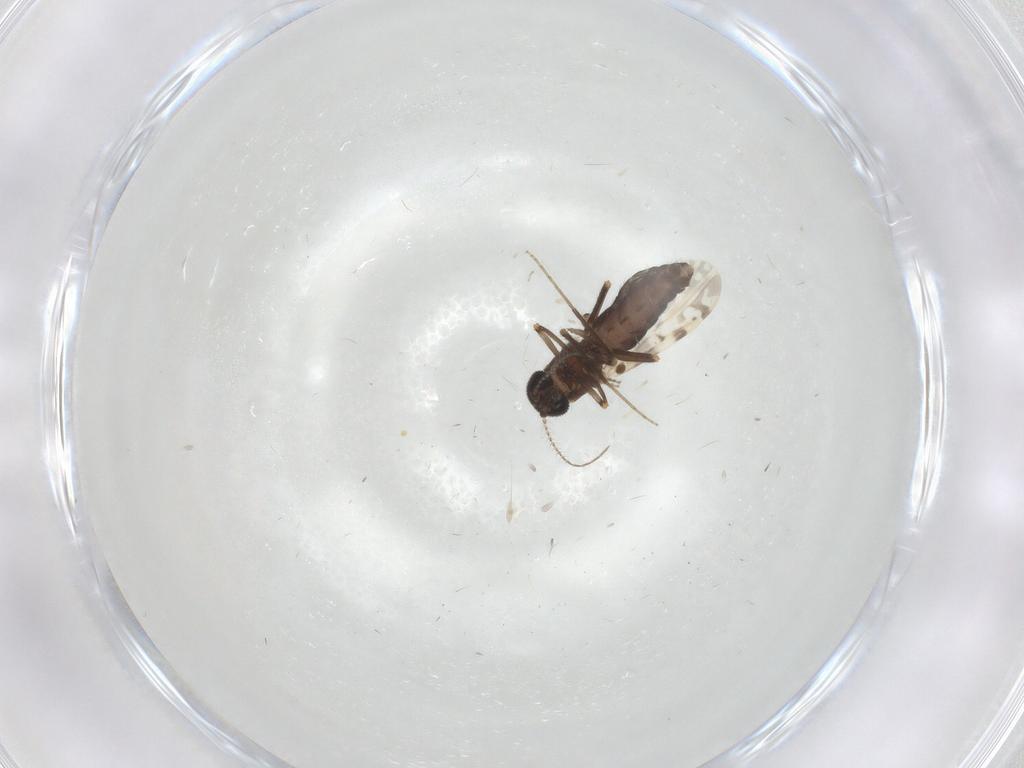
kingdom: Animalia
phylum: Arthropoda
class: Insecta
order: Diptera
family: Ceratopogonidae
